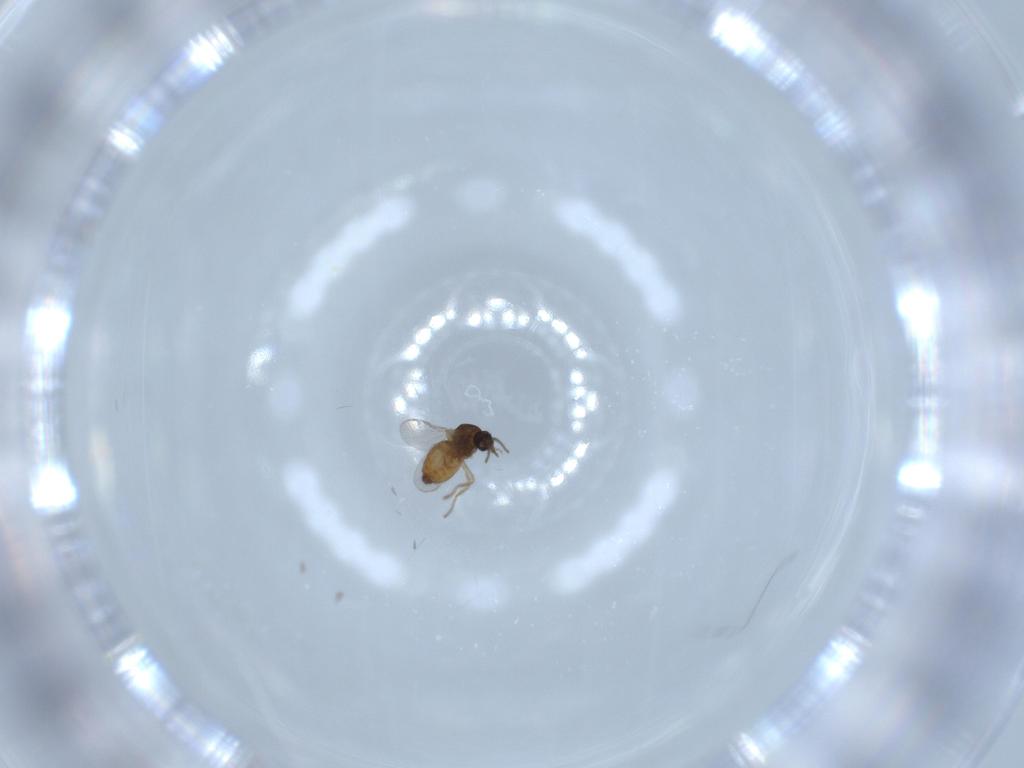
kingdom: Animalia
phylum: Arthropoda
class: Insecta
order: Diptera
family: Ceratopogonidae
